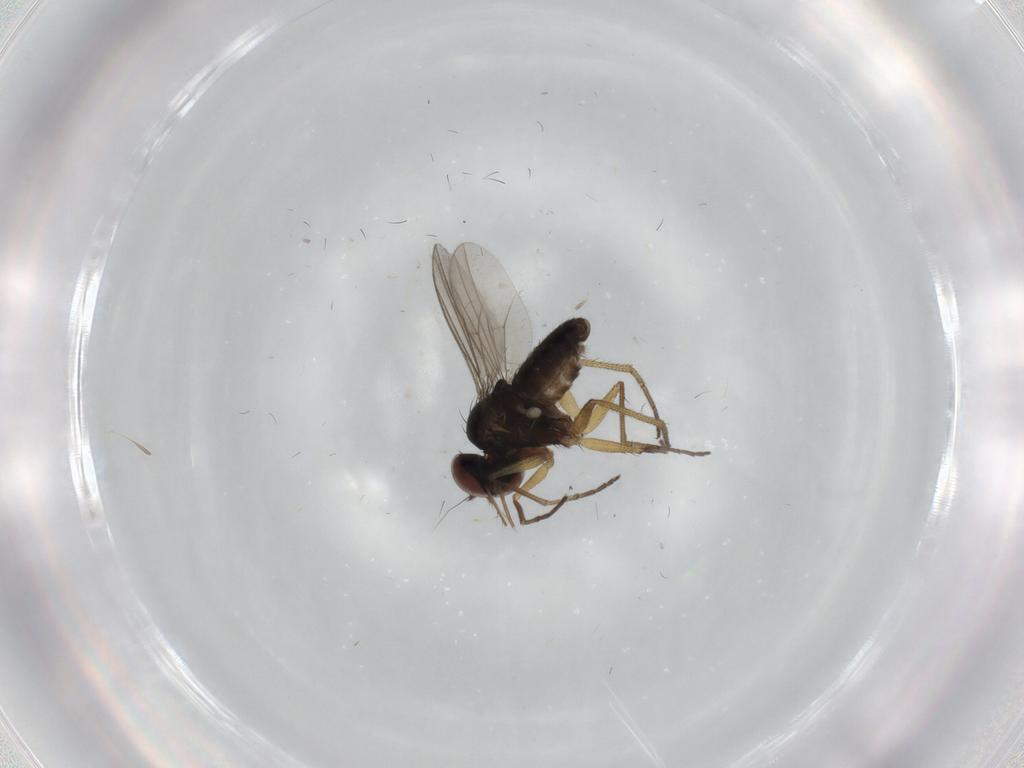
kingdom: Animalia
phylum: Arthropoda
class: Insecta
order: Diptera
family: Dolichopodidae
